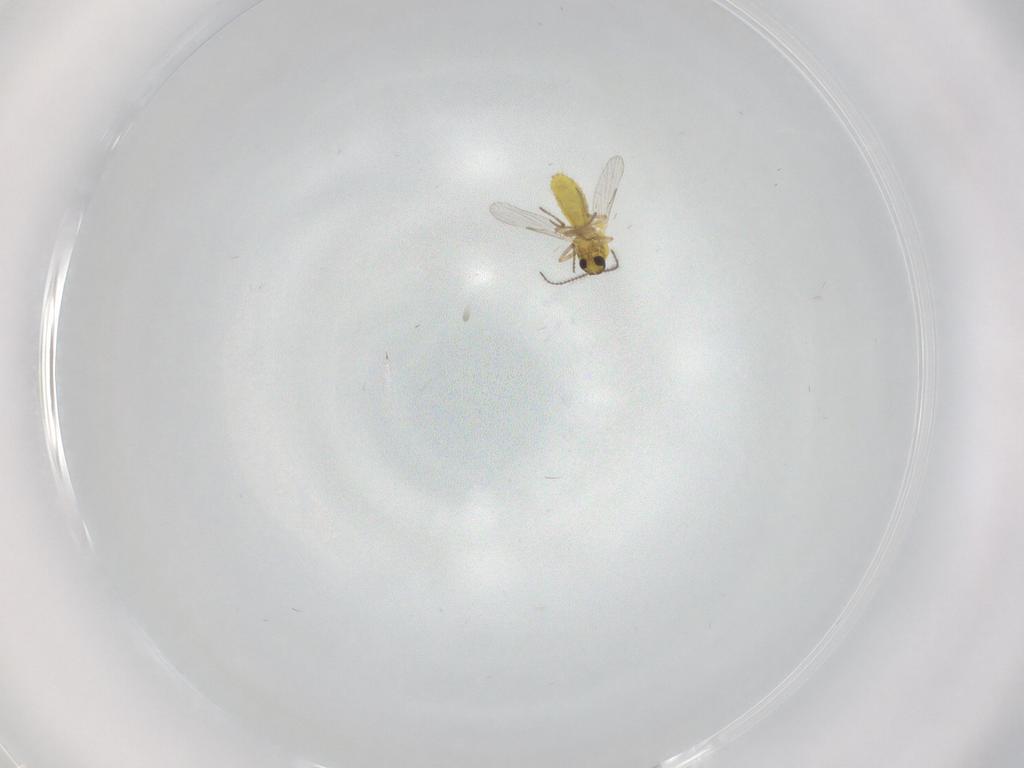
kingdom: Animalia
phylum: Arthropoda
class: Insecta
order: Diptera
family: Ceratopogonidae
